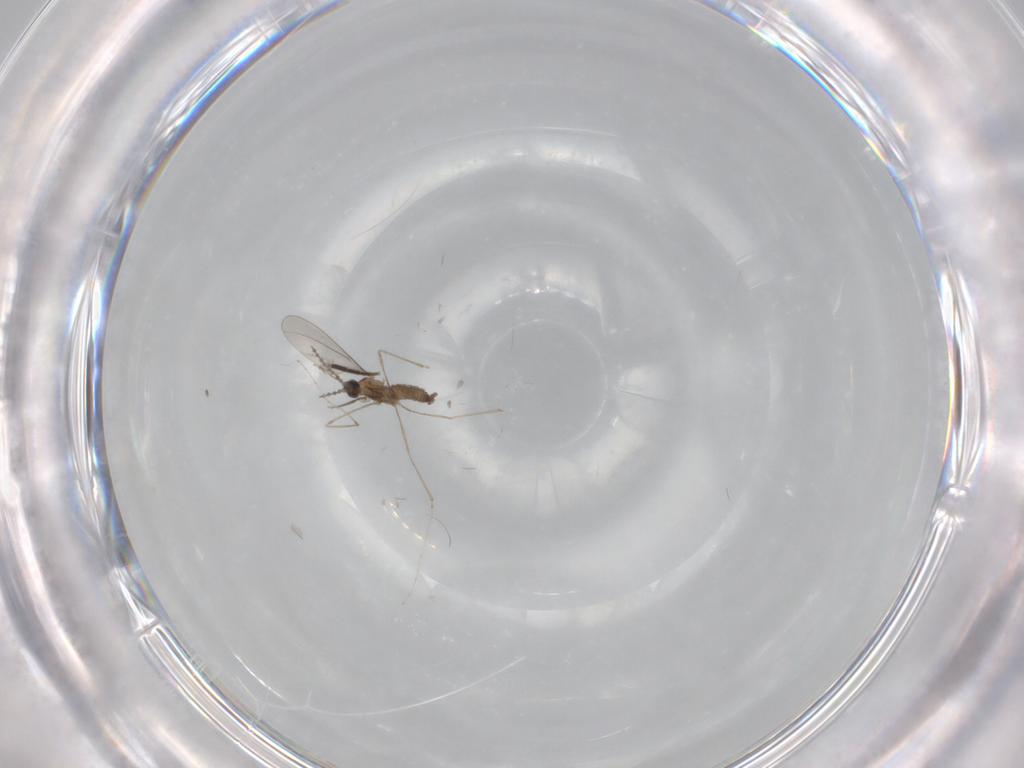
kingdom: Animalia
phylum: Arthropoda
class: Insecta
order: Diptera
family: Cecidomyiidae
